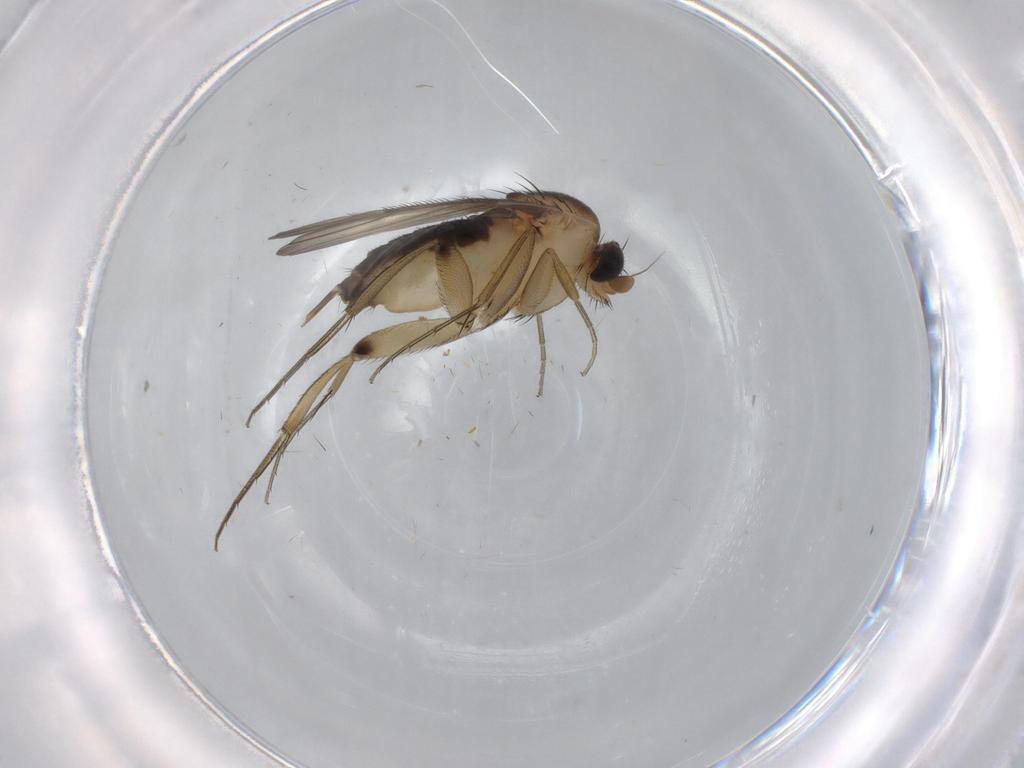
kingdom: Animalia
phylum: Arthropoda
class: Insecta
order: Diptera
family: Phoridae
